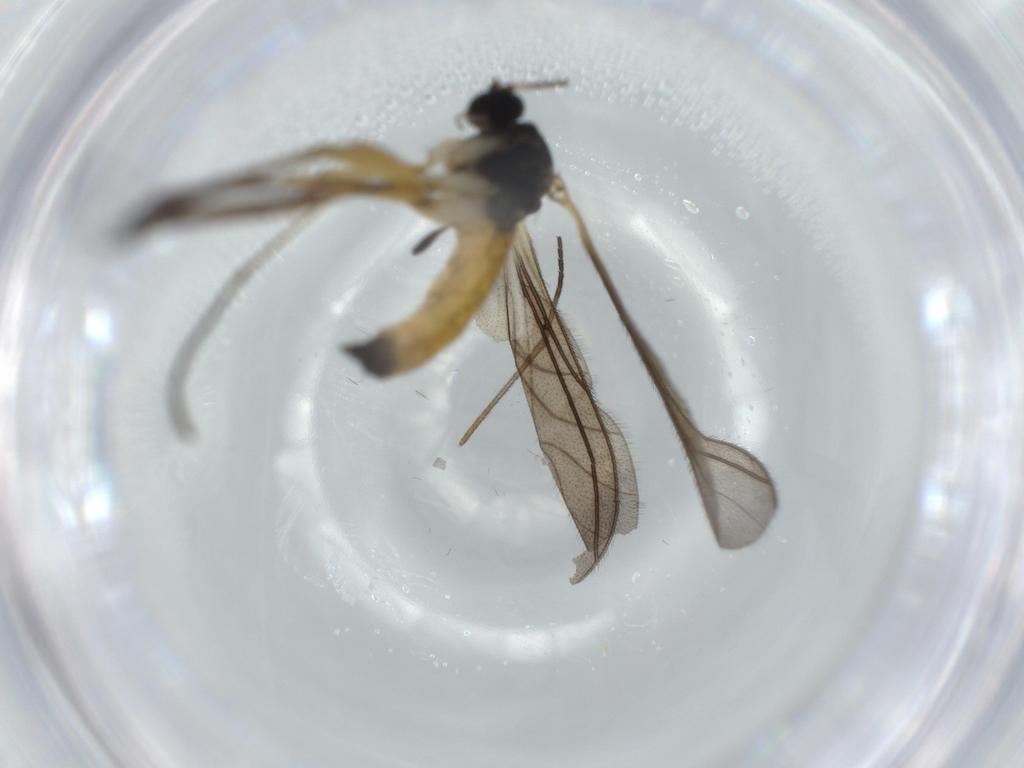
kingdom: Animalia
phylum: Arthropoda
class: Insecta
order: Diptera
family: Sciaridae
